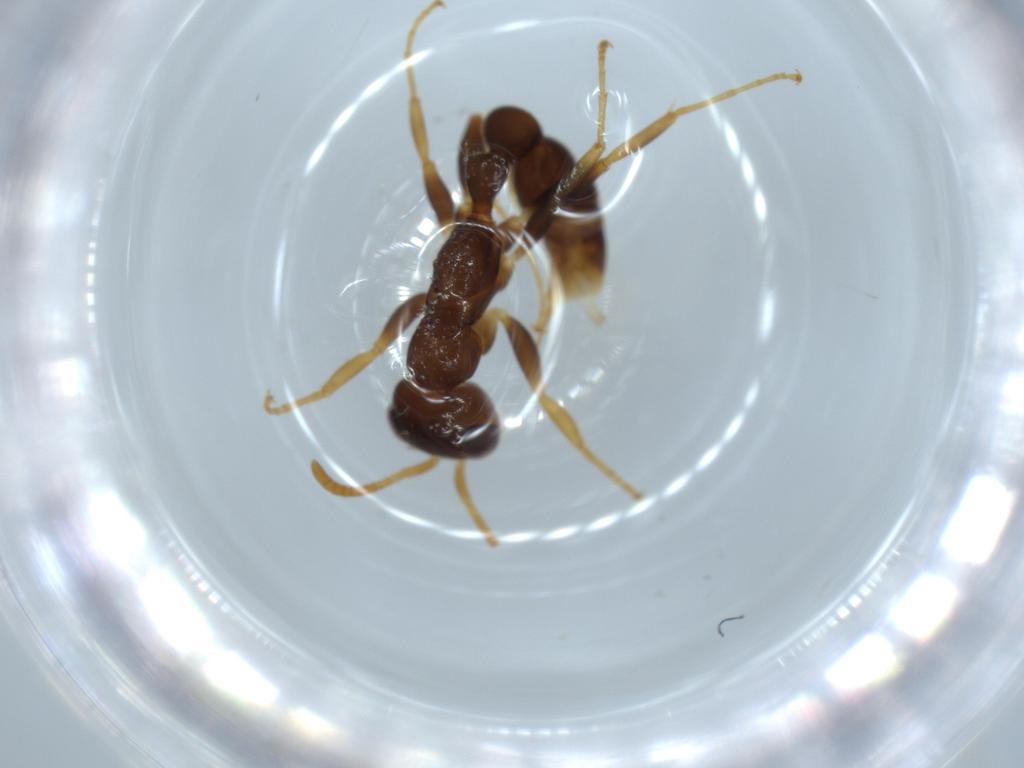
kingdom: Animalia
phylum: Arthropoda
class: Insecta
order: Hymenoptera
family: Formicidae
